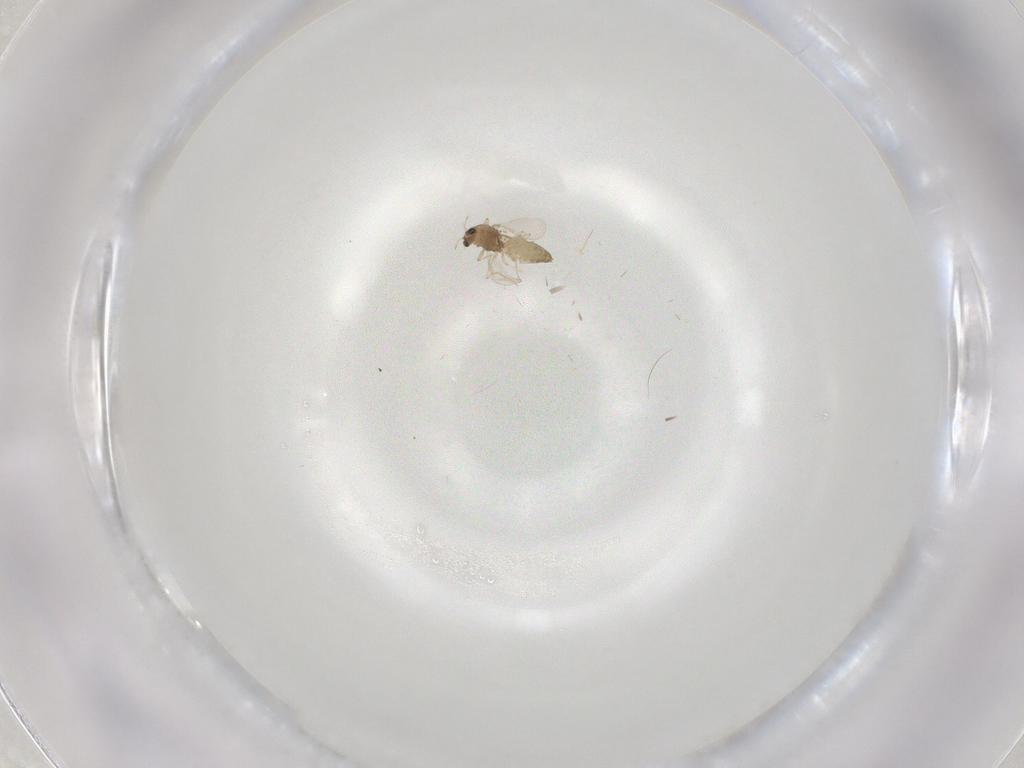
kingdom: Animalia
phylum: Arthropoda
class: Insecta
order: Diptera
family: Chironomidae
